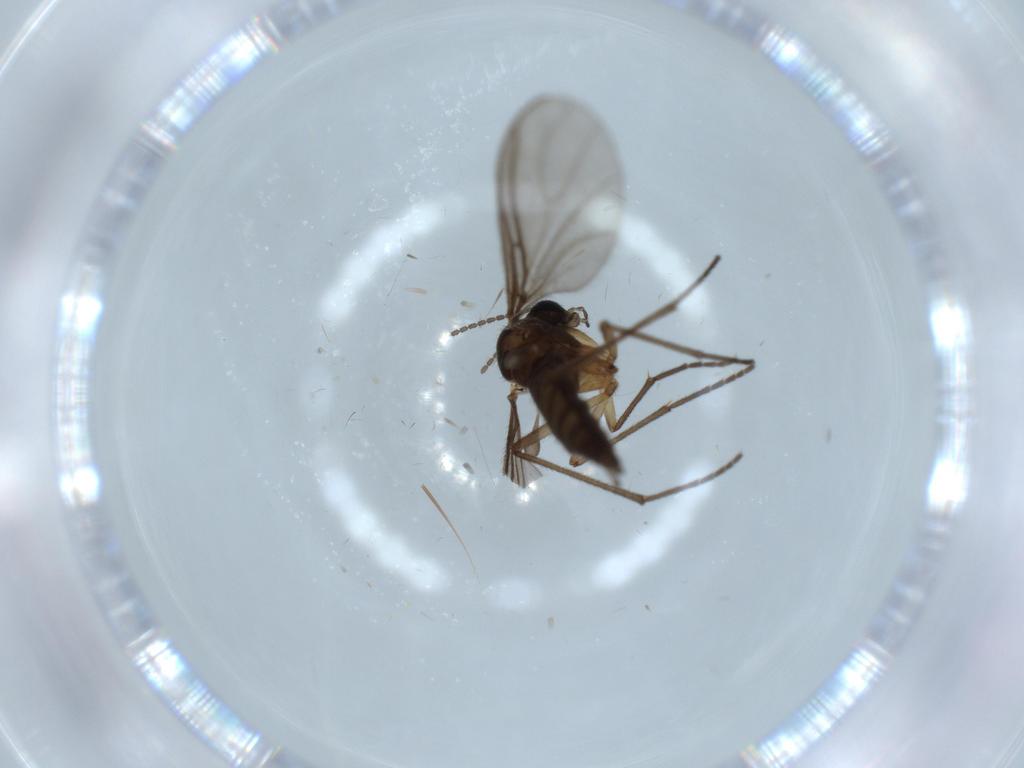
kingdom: Animalia
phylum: Arthropoda
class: Insecta
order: Diptera
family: Sciaridae
